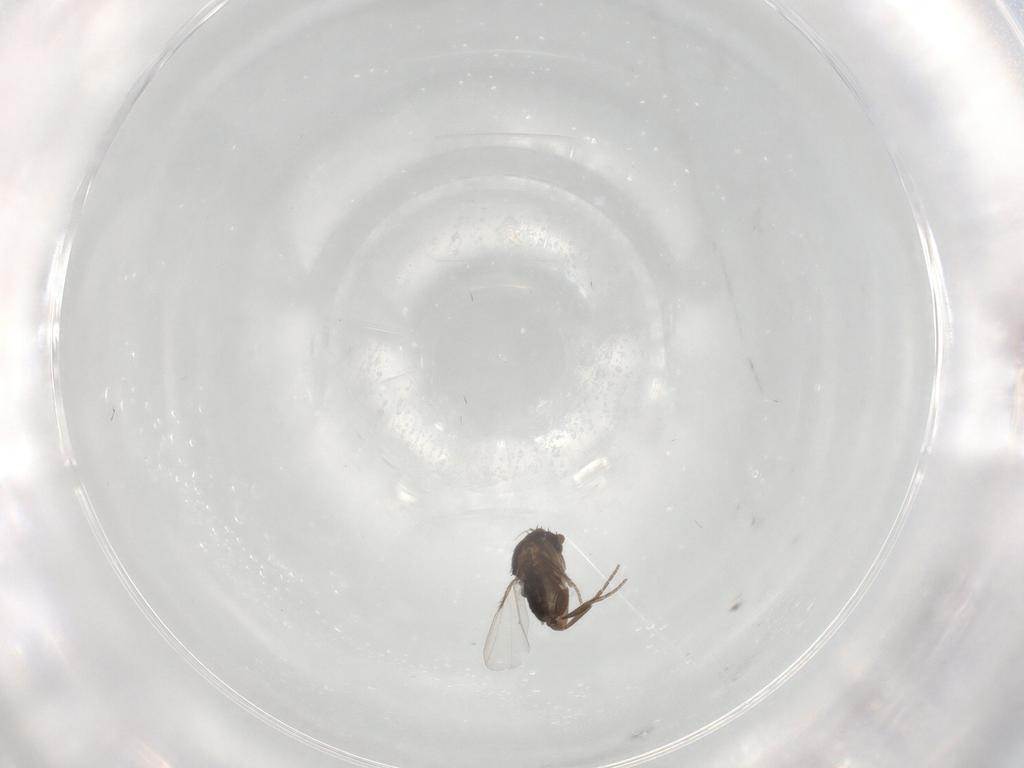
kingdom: Animalia
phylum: Arthropoda
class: Insecta
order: Diptera
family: Drosophilidae
